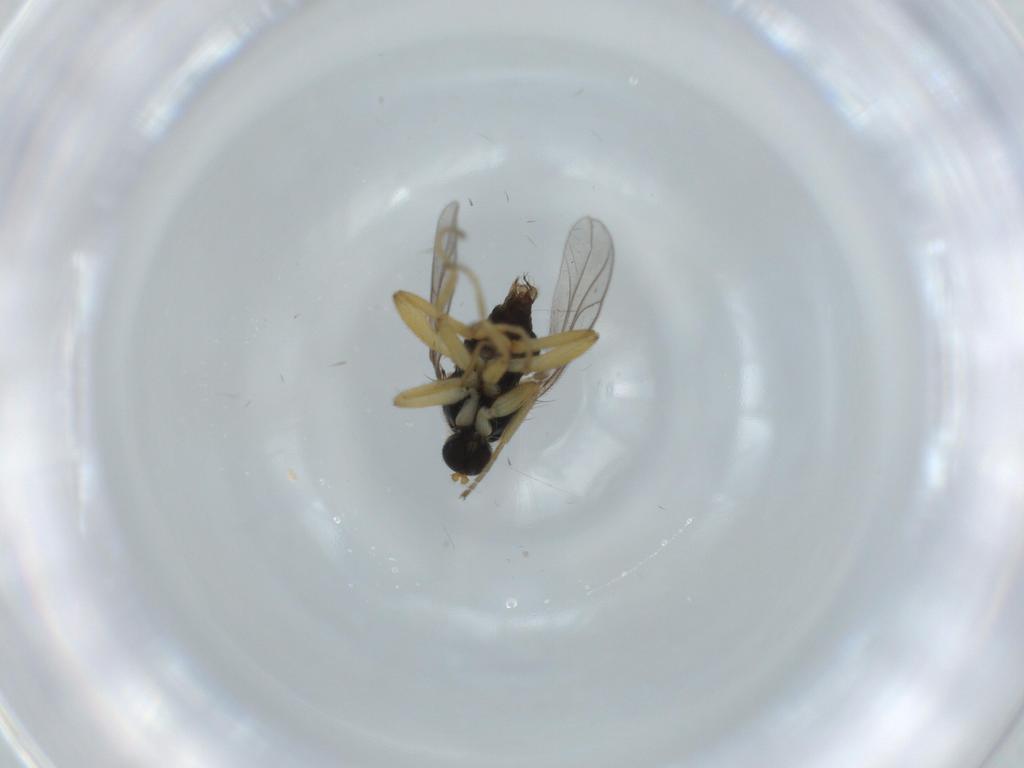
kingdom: Animalia
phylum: Arthropoda
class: Insecta
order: Diptera
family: Hybotidae
